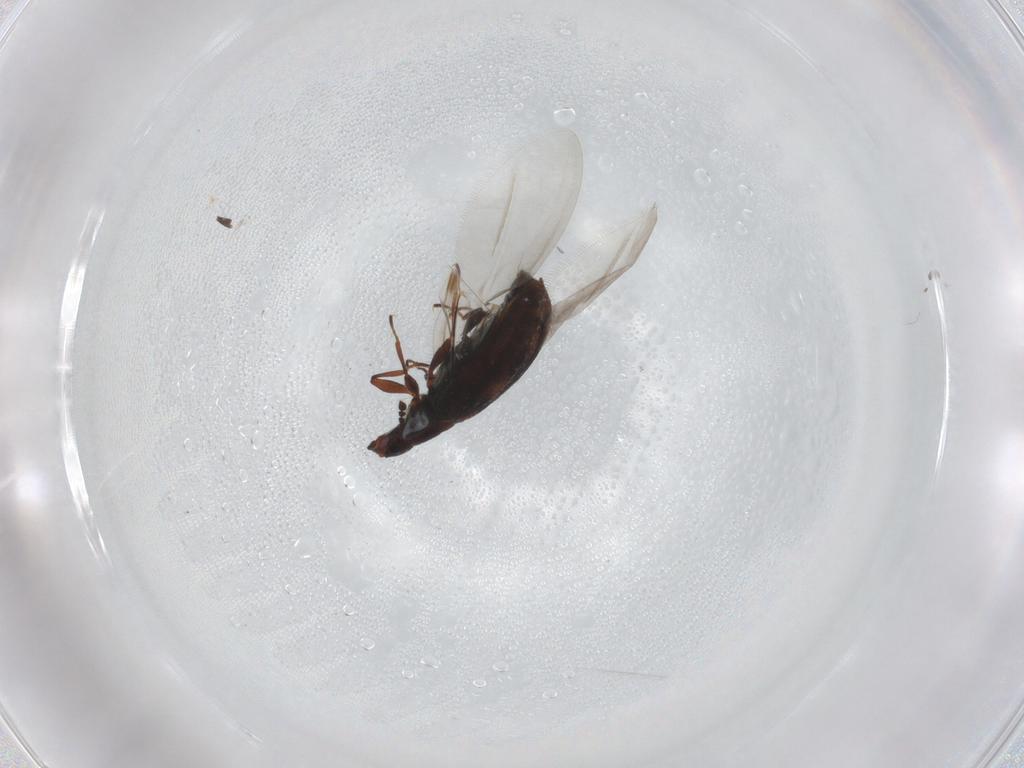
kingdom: Animalia
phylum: Arthropoda
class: Insecta
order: Coleoptera
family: Latridiidae
